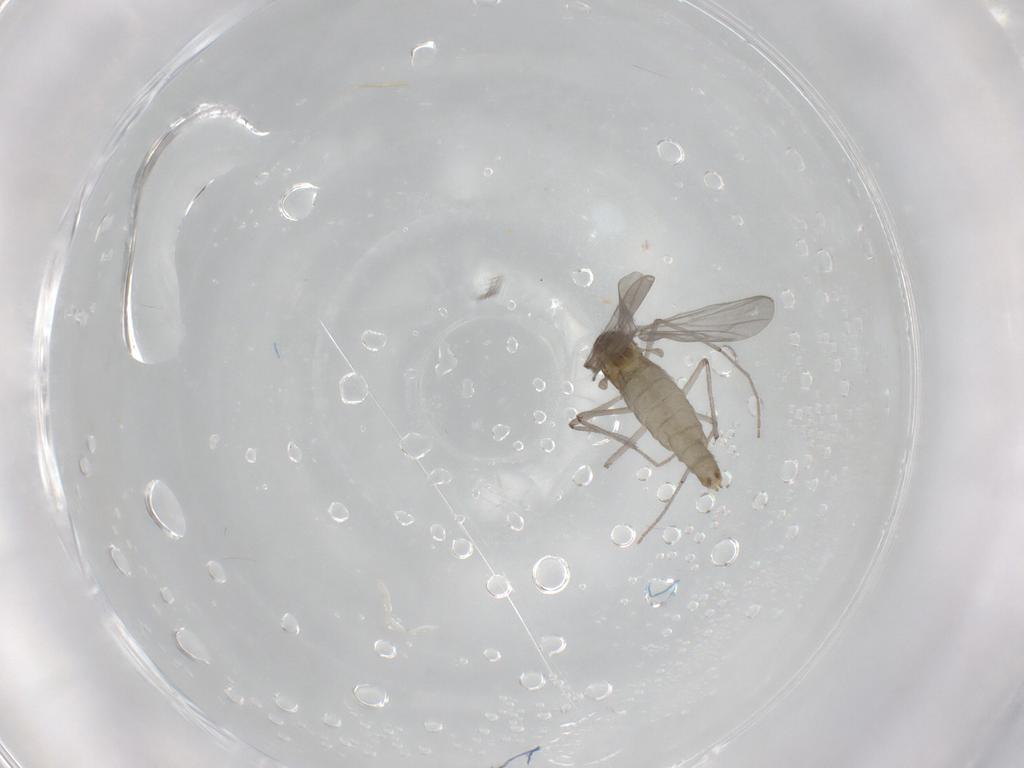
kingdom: Animalia
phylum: Arthropoda
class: Insecta
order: Diptera
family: Chironomidae
